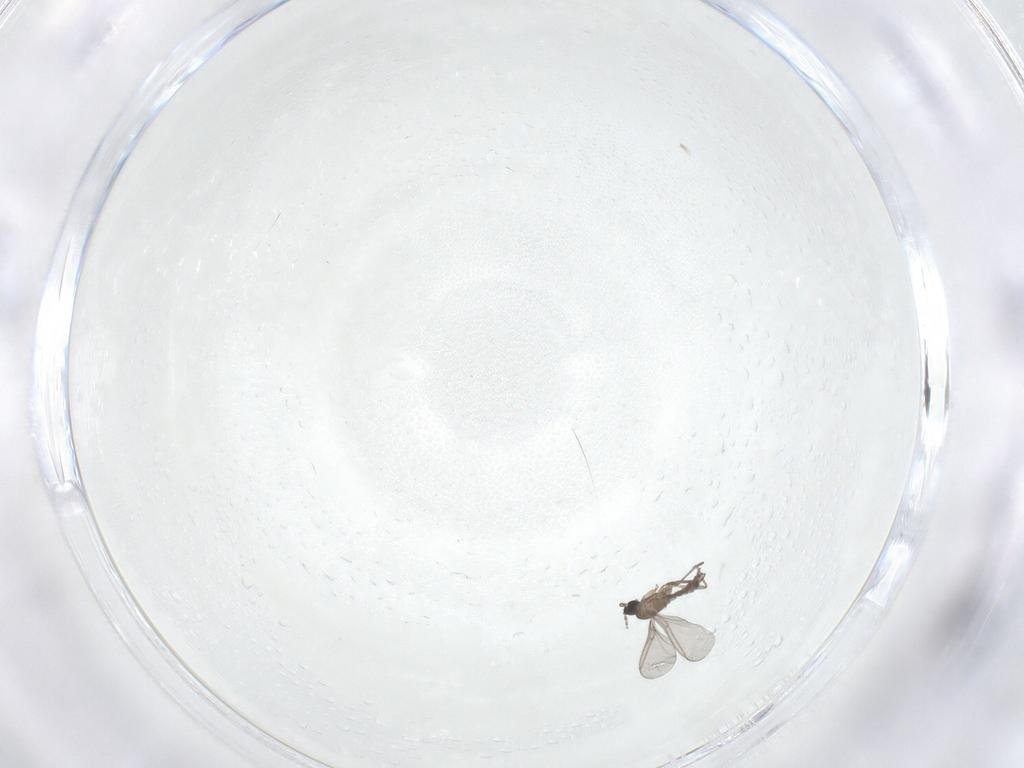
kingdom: Animalia
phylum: Arthropoda
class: Insecta
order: Diptera
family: Sciaridae
